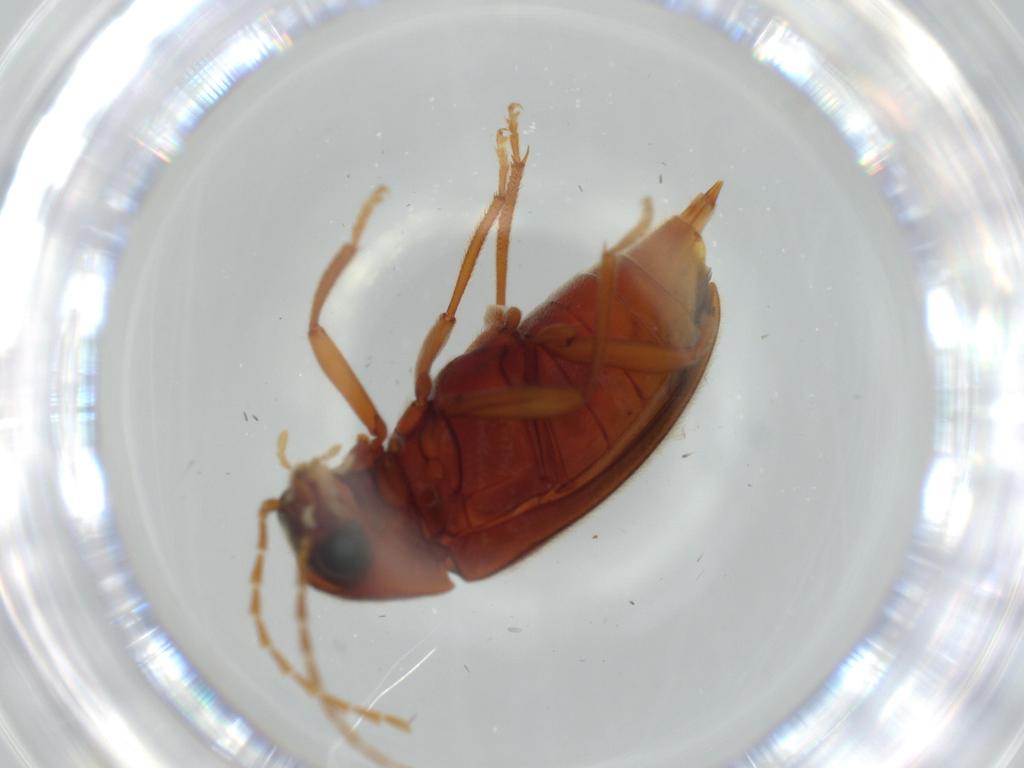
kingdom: Animalia
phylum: Arthropoda
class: Insecta
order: Coleoptera
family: Ptilodactylidae
